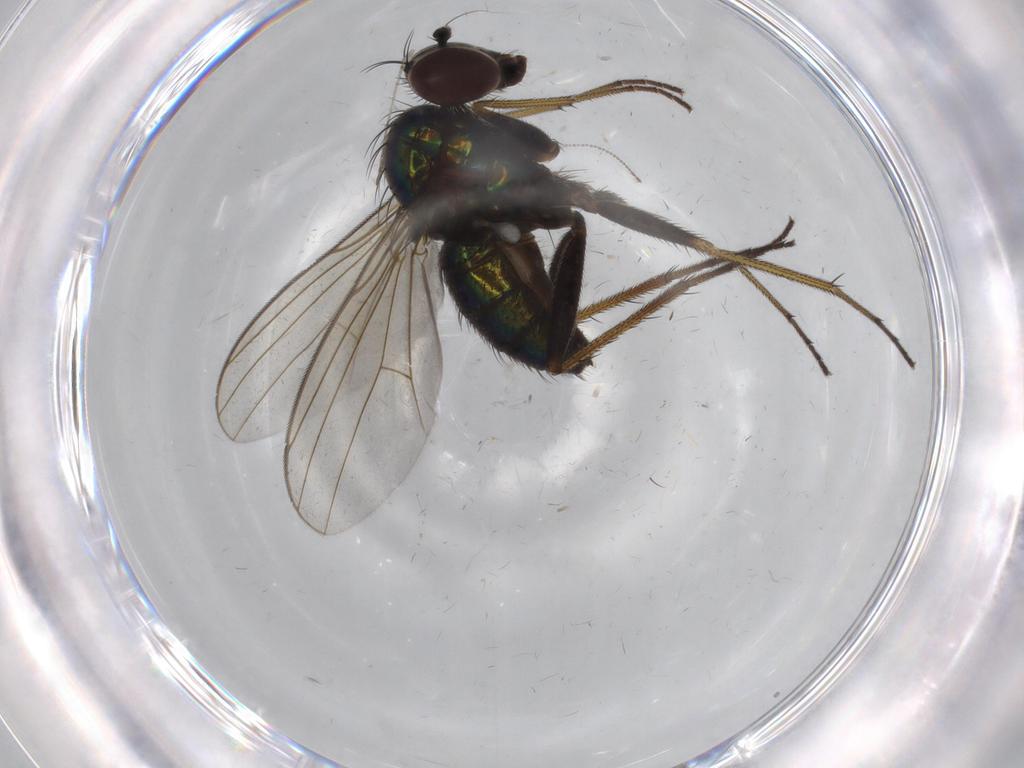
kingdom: Animalia
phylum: Arthropoda
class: Insecta
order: Diptera
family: Dolichopodidae
